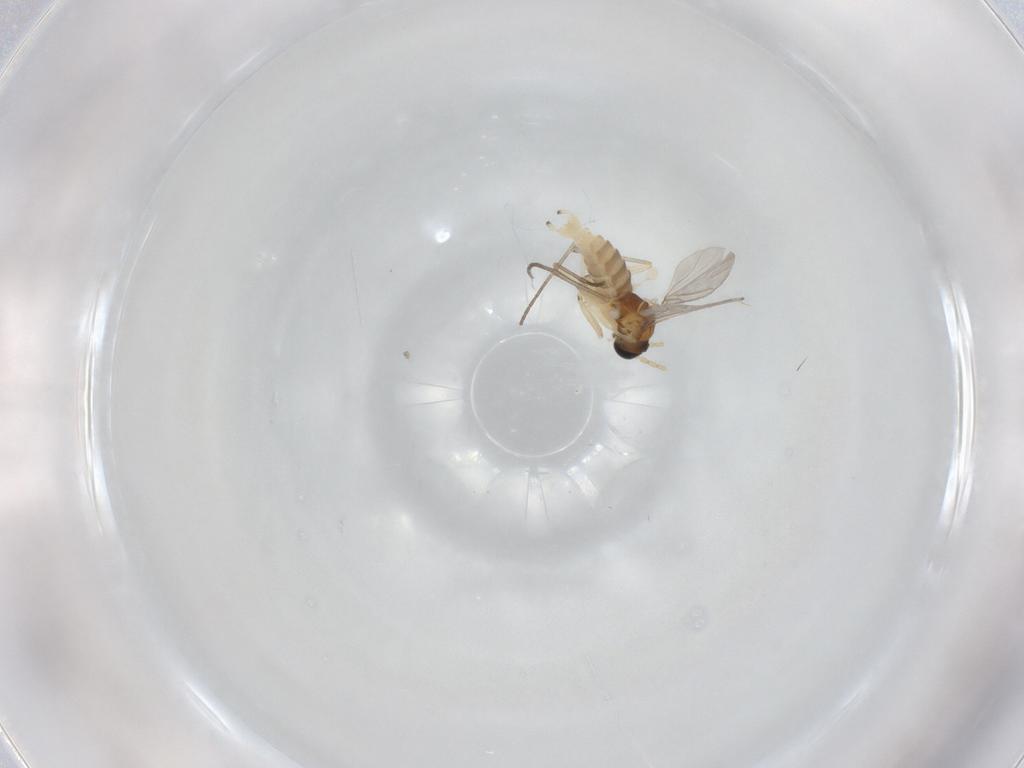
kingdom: Animalia
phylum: Arthropoda
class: Insecta
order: Diptera
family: Sciaridae
